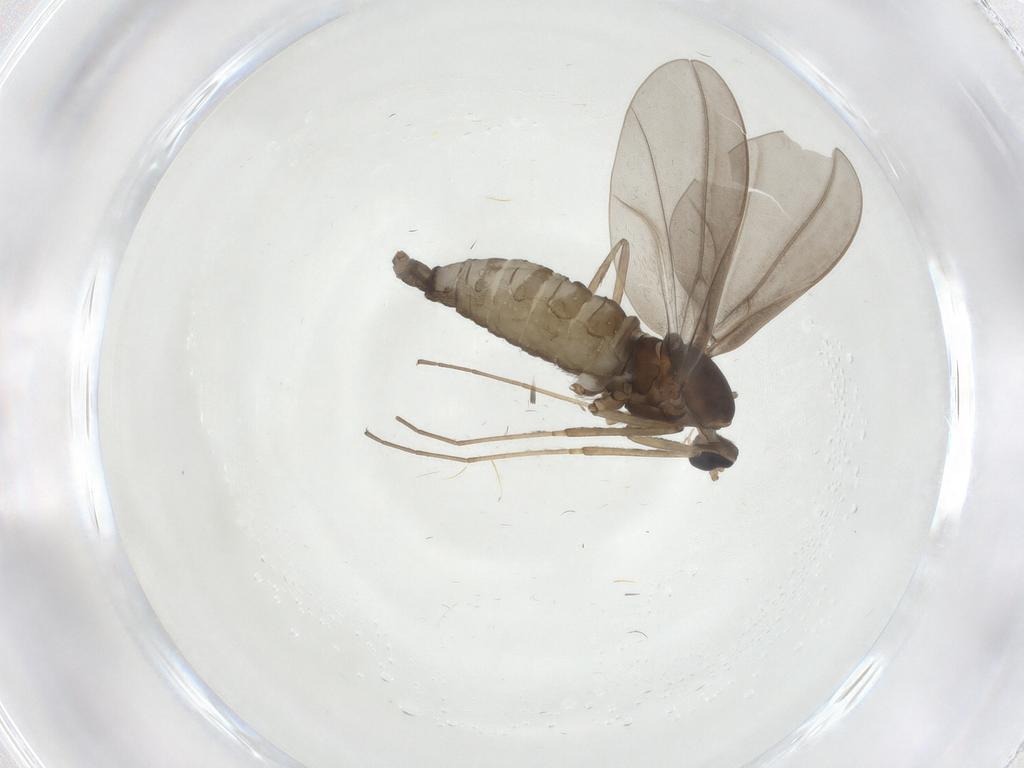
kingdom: Animalia
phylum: Arthropoda
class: Insecta
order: Diptera
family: Cecidomyiidae
